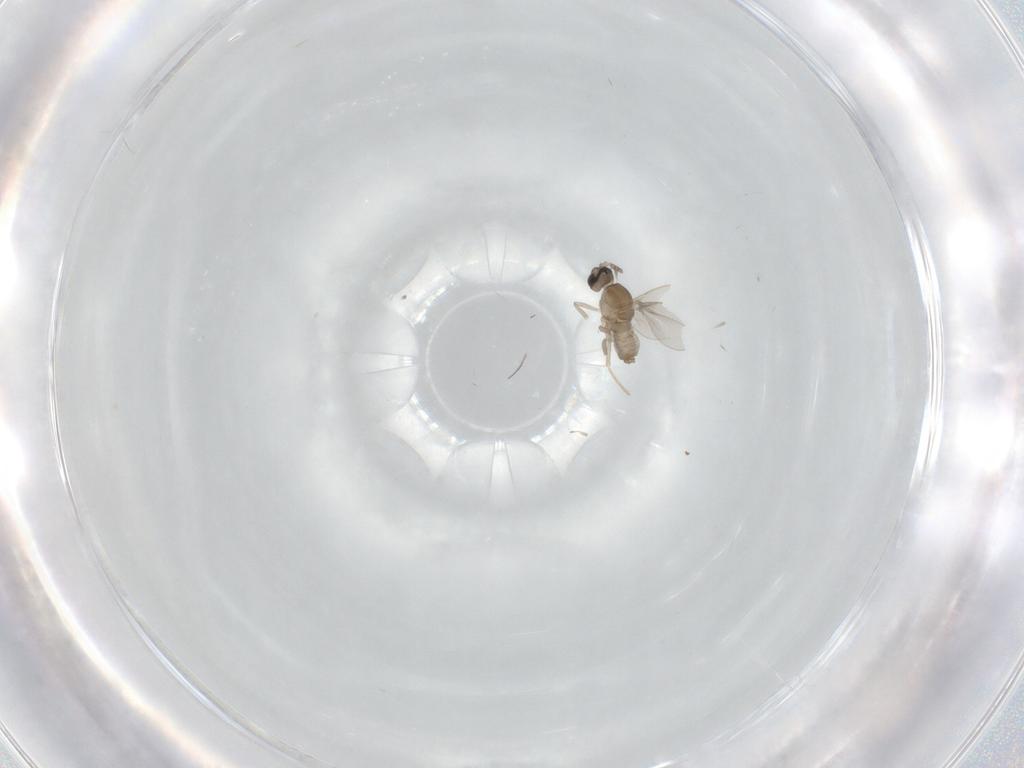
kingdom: Animalia
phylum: Arthropoda
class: Insecta
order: Diptera
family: Cecidomyiidae
